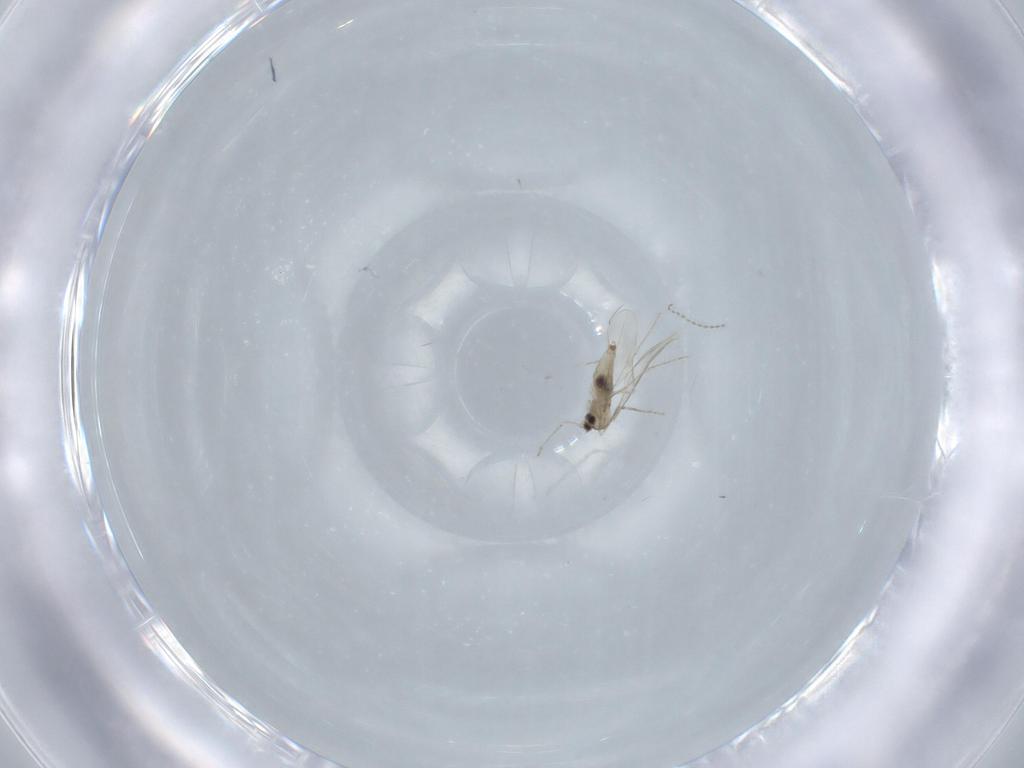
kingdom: Animalia
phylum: Arthropoda
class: Insecta
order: Diptera
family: Cecidomyiidae
